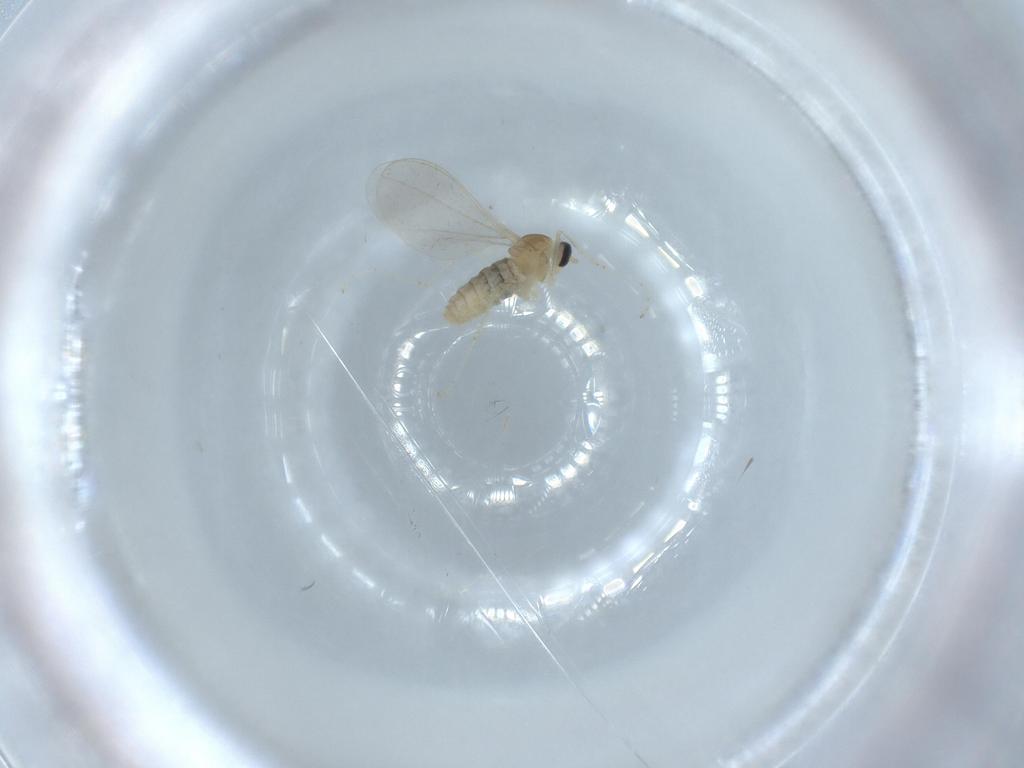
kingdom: Animalia
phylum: Arthropoda
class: Insecta
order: Diptera
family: Cecidomyiidae
